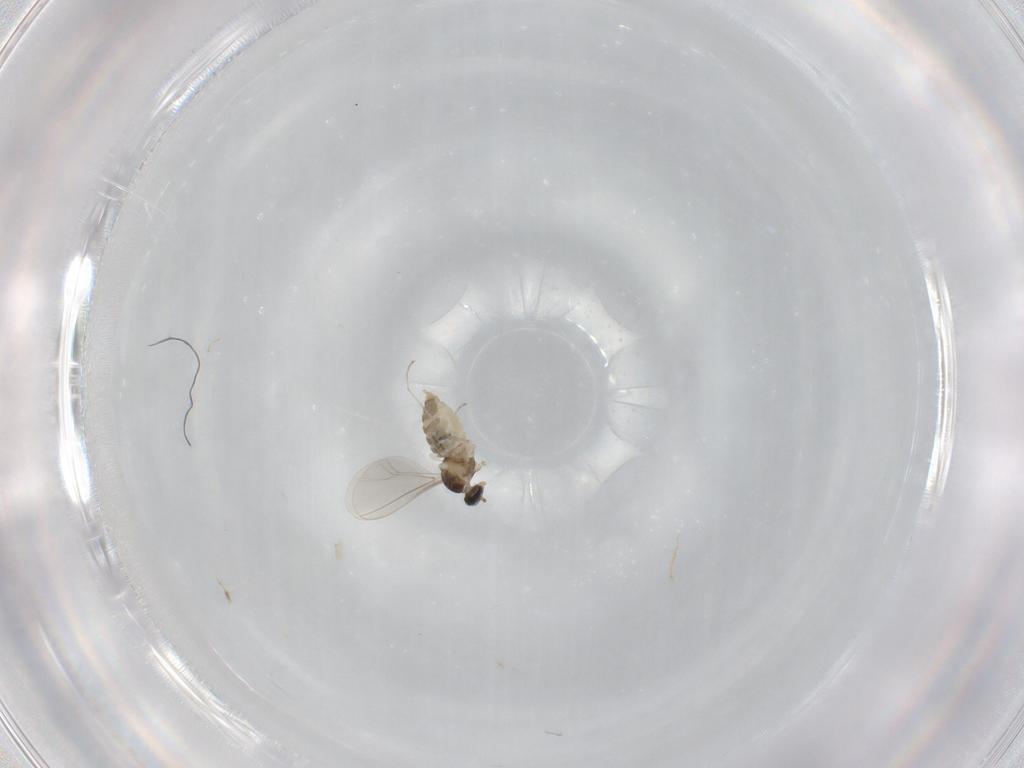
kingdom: Animalia
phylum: Arthropoda
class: Insecta
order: Diptera
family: Cecidomyiidae
